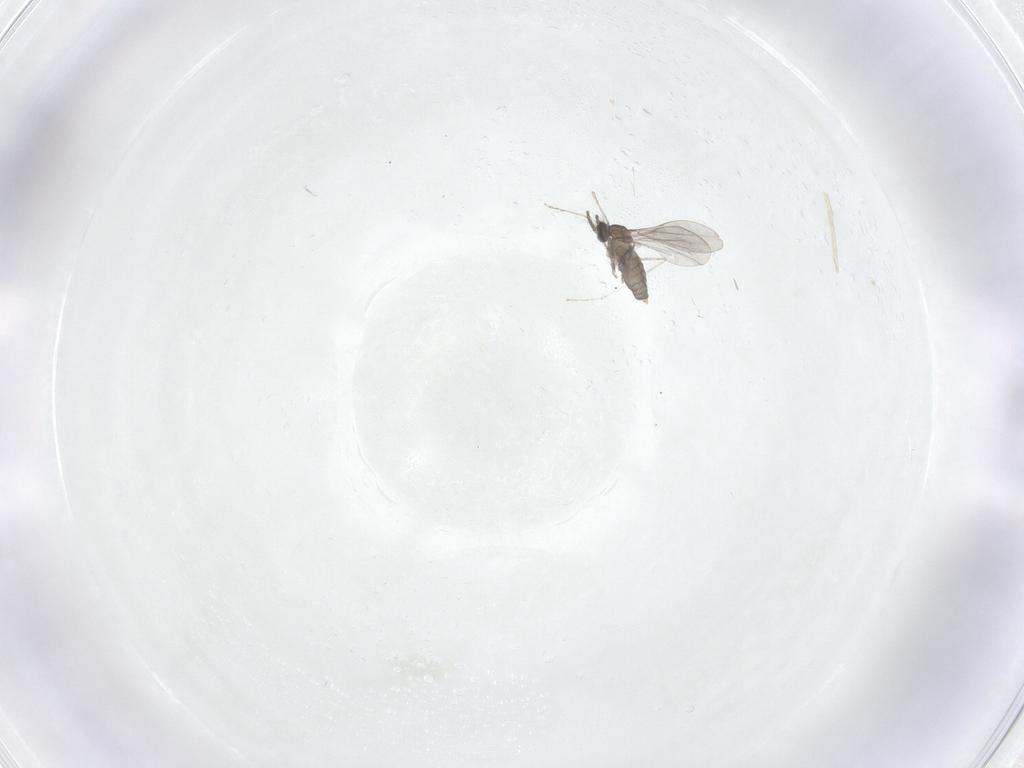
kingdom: Animalia
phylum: Arthropoda
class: Insecta
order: Diptera
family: Cecidomyiidae
